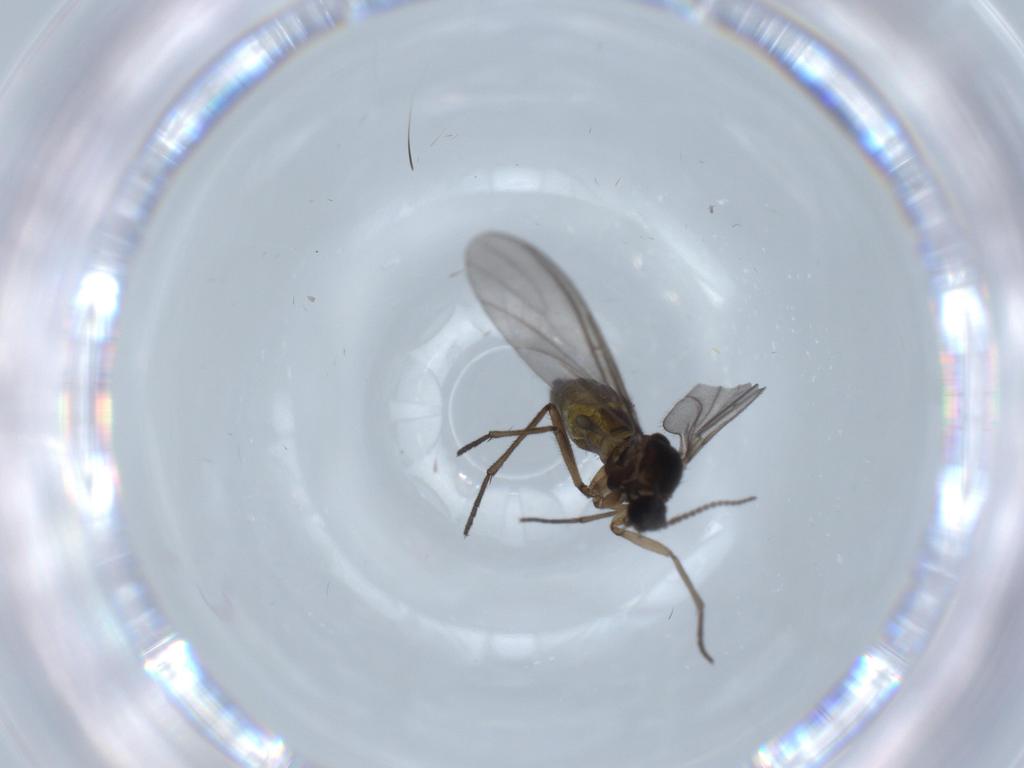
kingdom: Animalia
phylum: Arthropoda
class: Insecta
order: Diptera
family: Sciaridae
